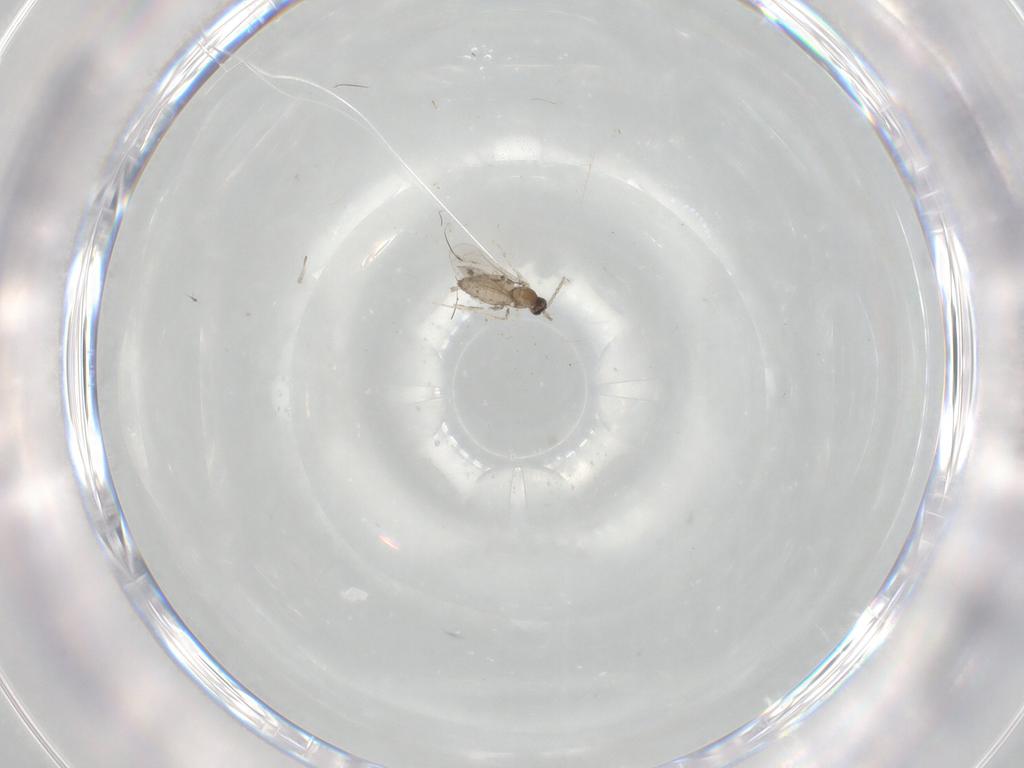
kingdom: Animalia
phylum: Arthropoda
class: Insecta
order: Diptera
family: Cecidomyiidae
